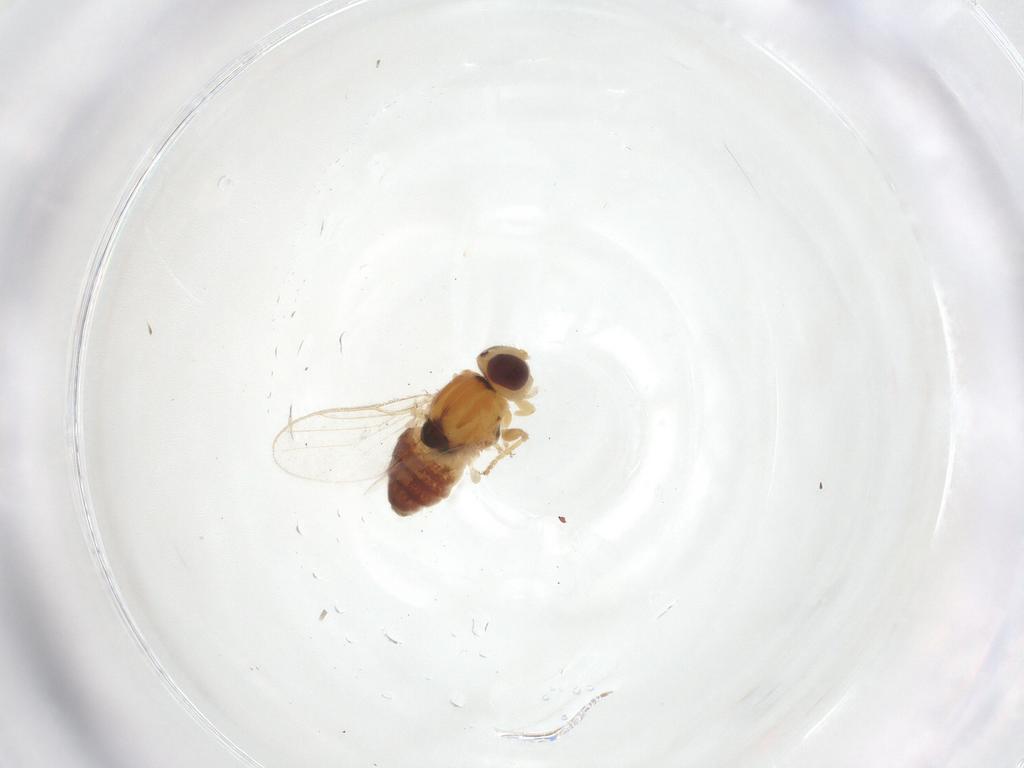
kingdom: Animalia
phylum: Arthropoda
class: Insecta
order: Diptera
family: Chloropidae
